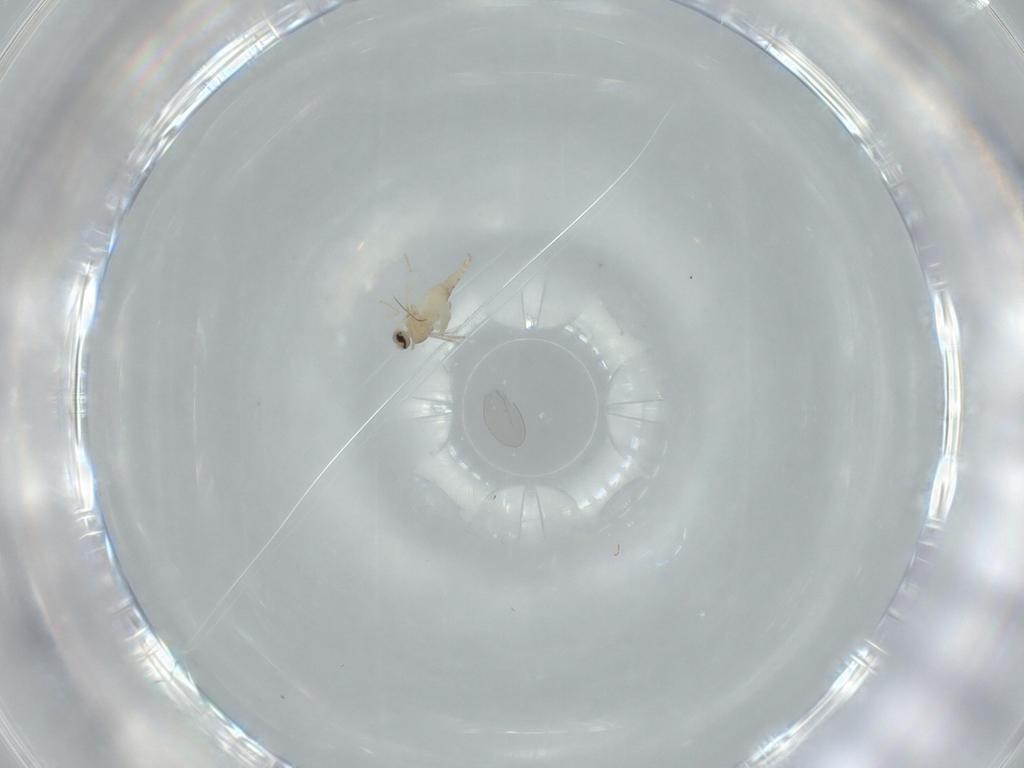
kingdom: Animalia
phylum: Arthropoda
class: Insecta
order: Diptera
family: Cecidomyiidae
